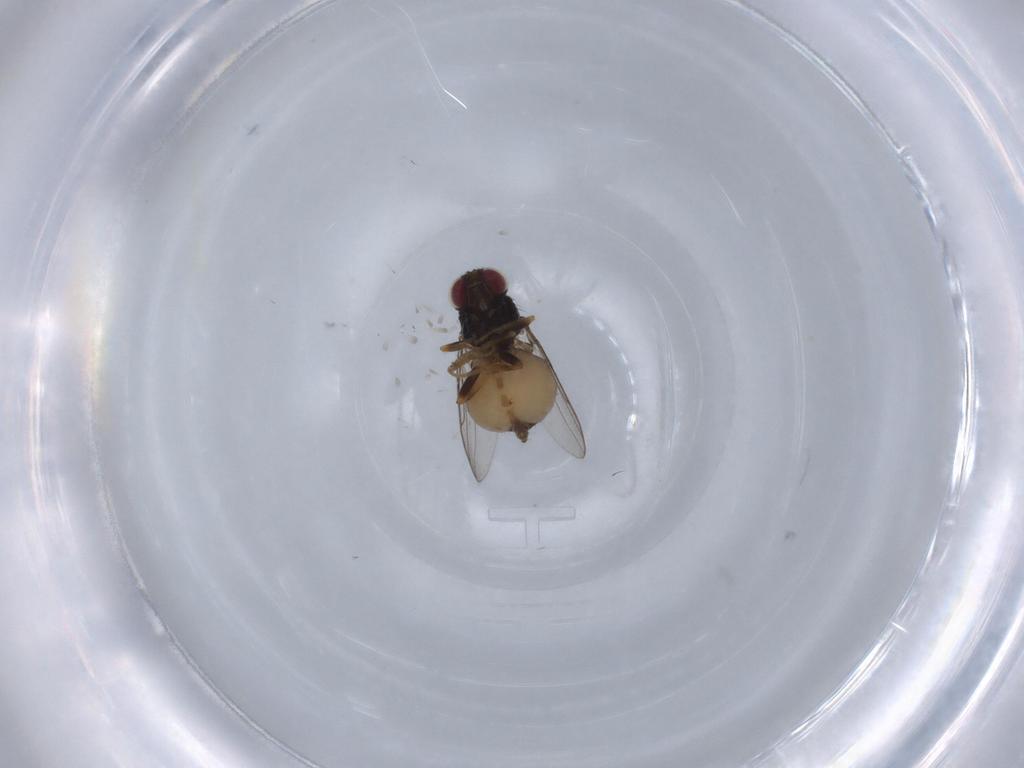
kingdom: Animalia
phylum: Arthropoda
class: Insecta
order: Diptera
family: Chloropidae
